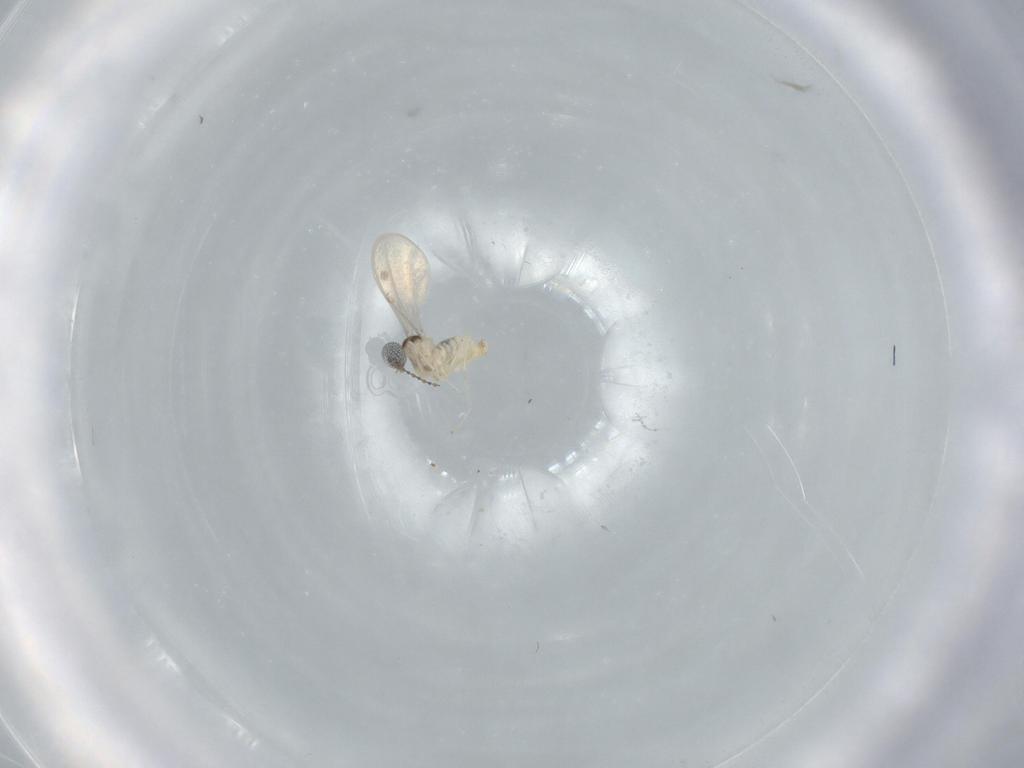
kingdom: Animalia
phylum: Arthropoda
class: Insecta
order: Diptera
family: Cecidomyiidae
